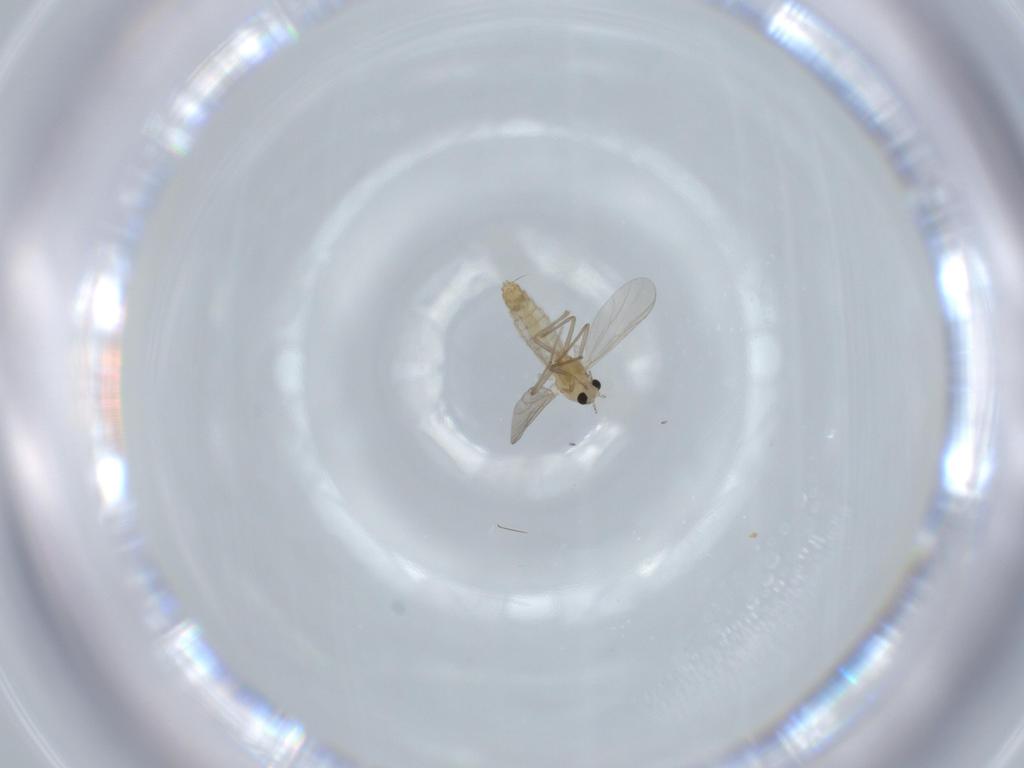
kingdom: Animalia
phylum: Arthropoda
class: Insecta
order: Diptera
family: Chironomidae
